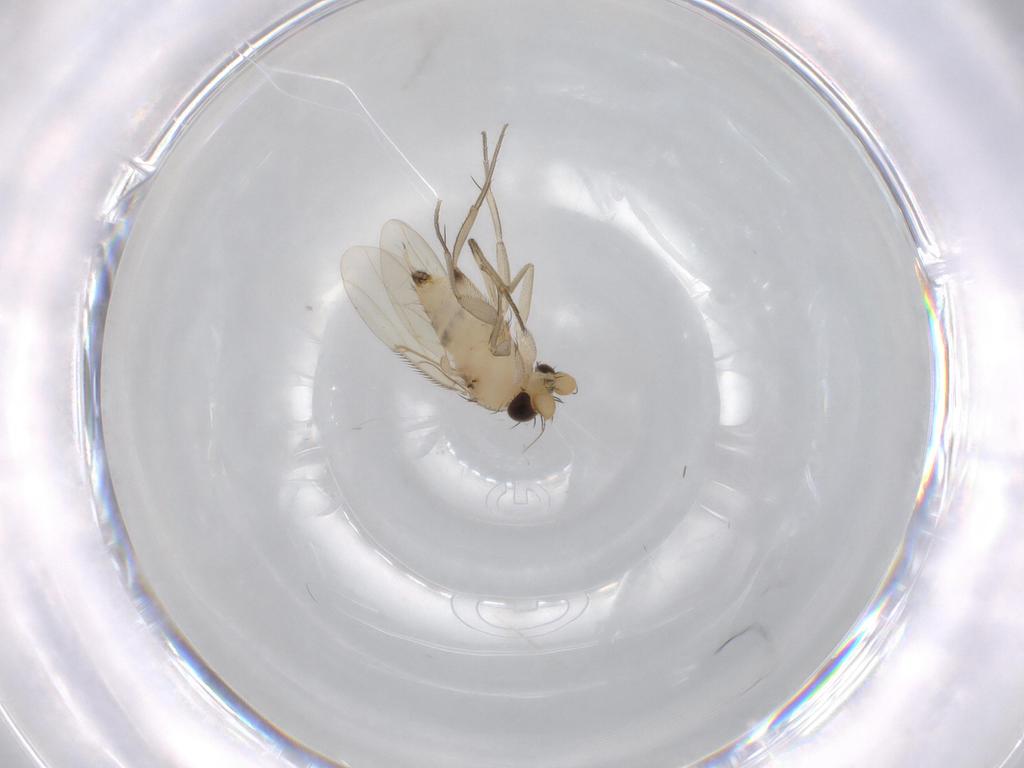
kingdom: Animalia
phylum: Arthropoda
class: Insecta
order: Diptera
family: Phoridae
